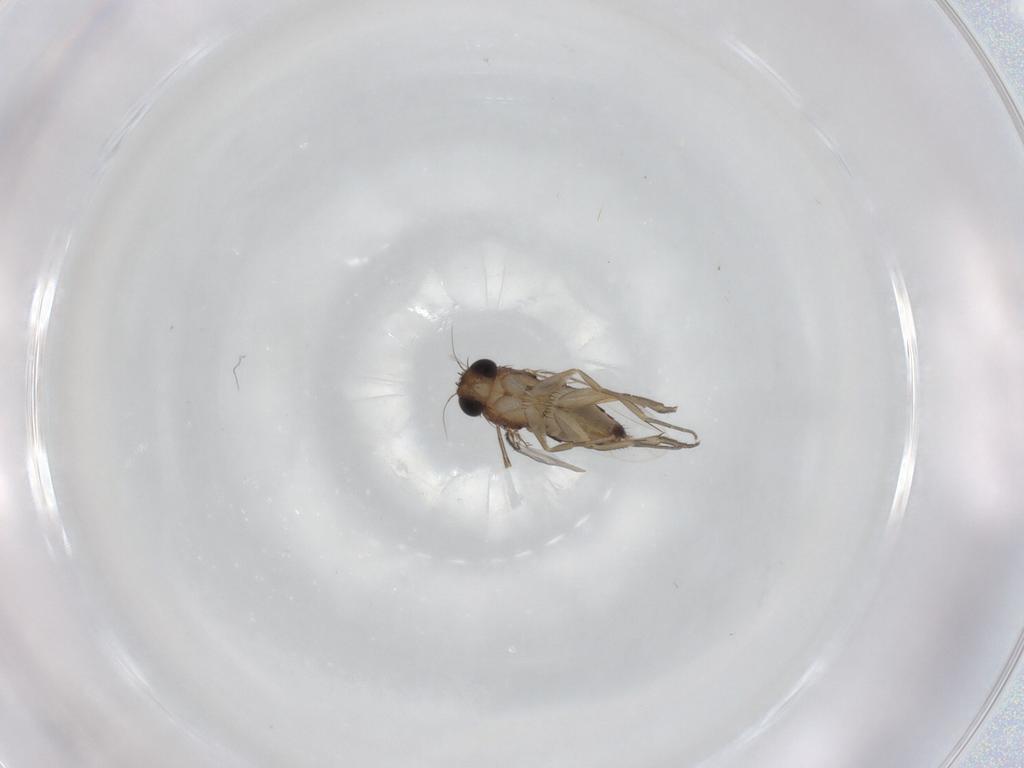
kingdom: Animalia
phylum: Arthropoda
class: Insecta
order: Diptera
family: Phoridae
